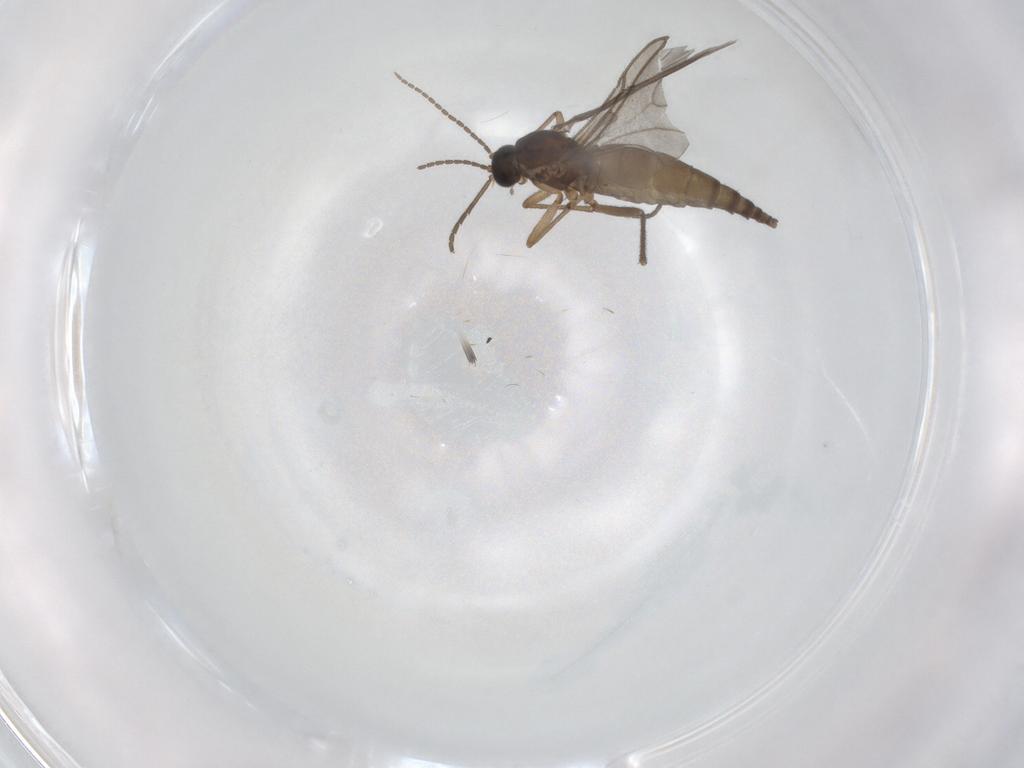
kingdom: Animalia
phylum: Arthropoda
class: Insecta
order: Diptera
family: Sciaridae
